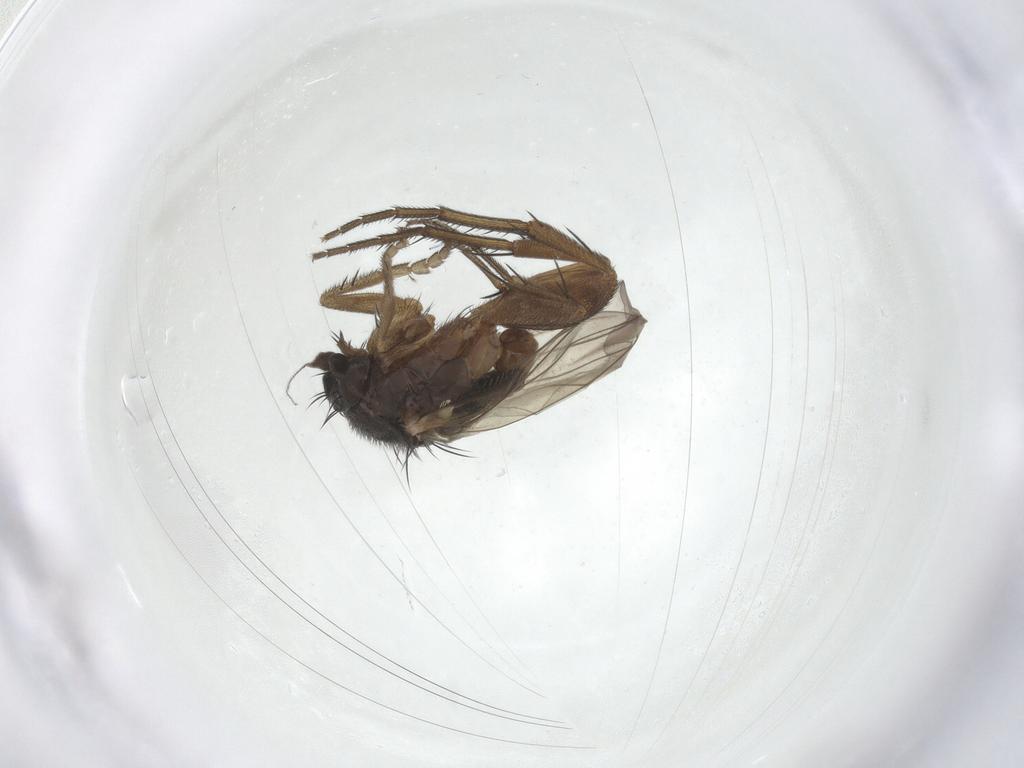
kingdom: Animalia
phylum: Arthropoda
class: Insecta
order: Diptera
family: Phoridae
